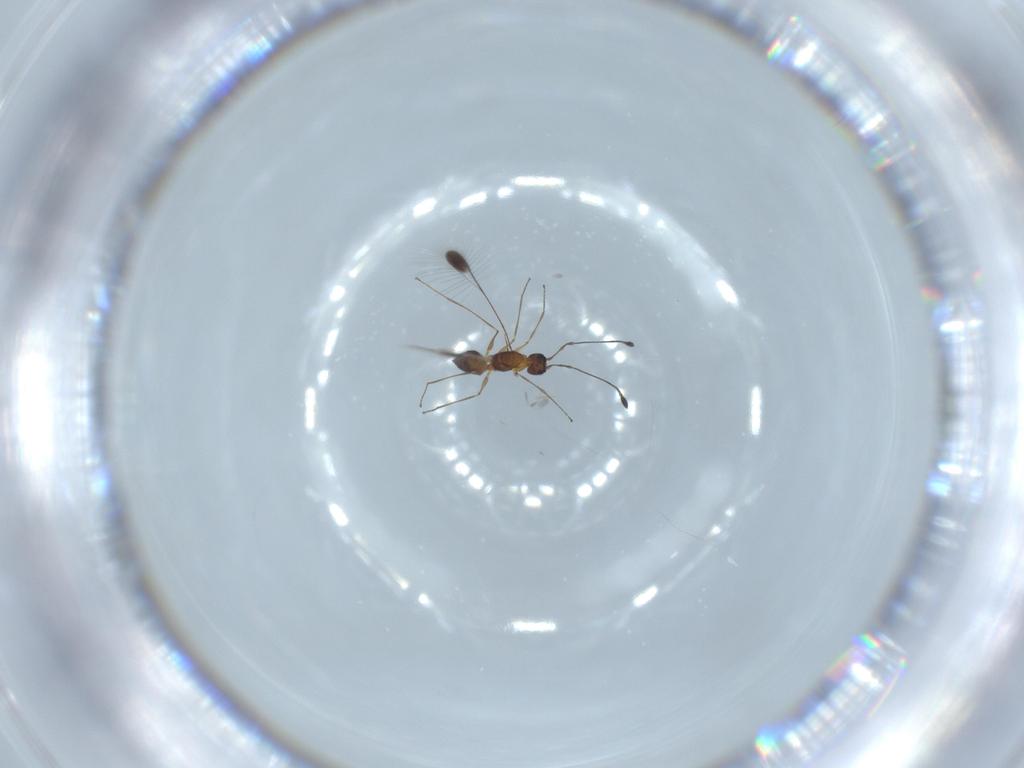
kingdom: Animalia
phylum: Arthropoda
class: Insecta
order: Hymenoptera
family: Mymaridae
